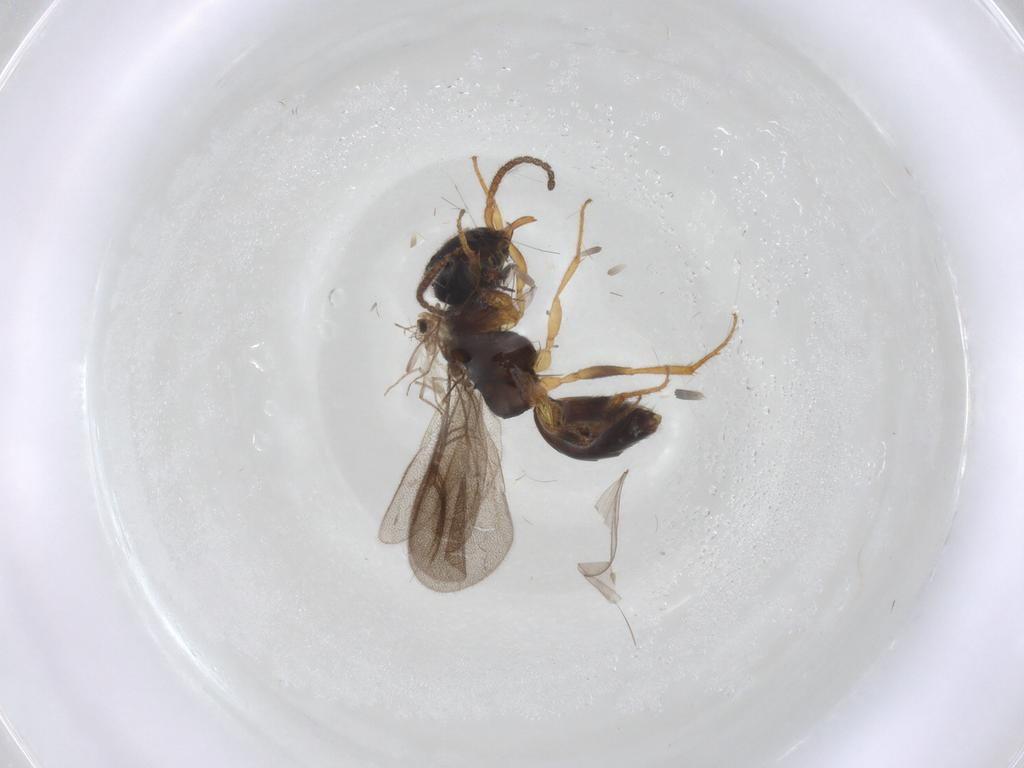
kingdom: Animalia
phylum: Arthropoda
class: Insecta
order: Hymenoptera
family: Bethylidae
